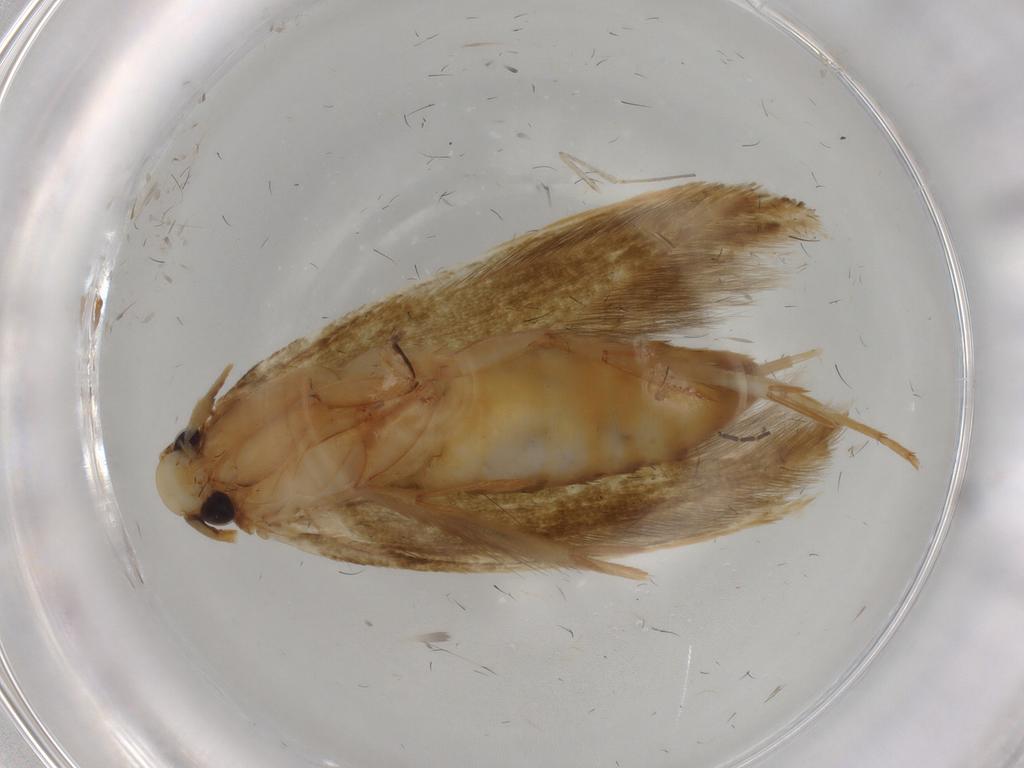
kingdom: Animalia
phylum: Arthropoda
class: Insecta
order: Lepidoptera
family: Tineidae
